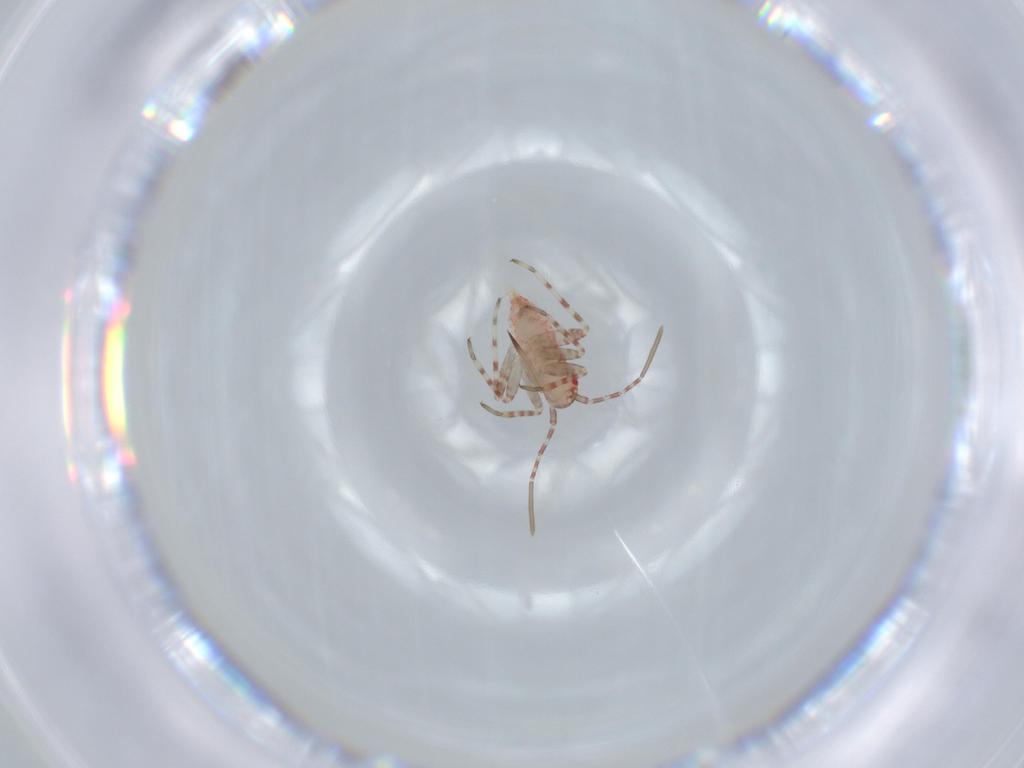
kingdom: Animalia
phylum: Arthropoda
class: Insecta
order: Hemiptera
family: Miridae
